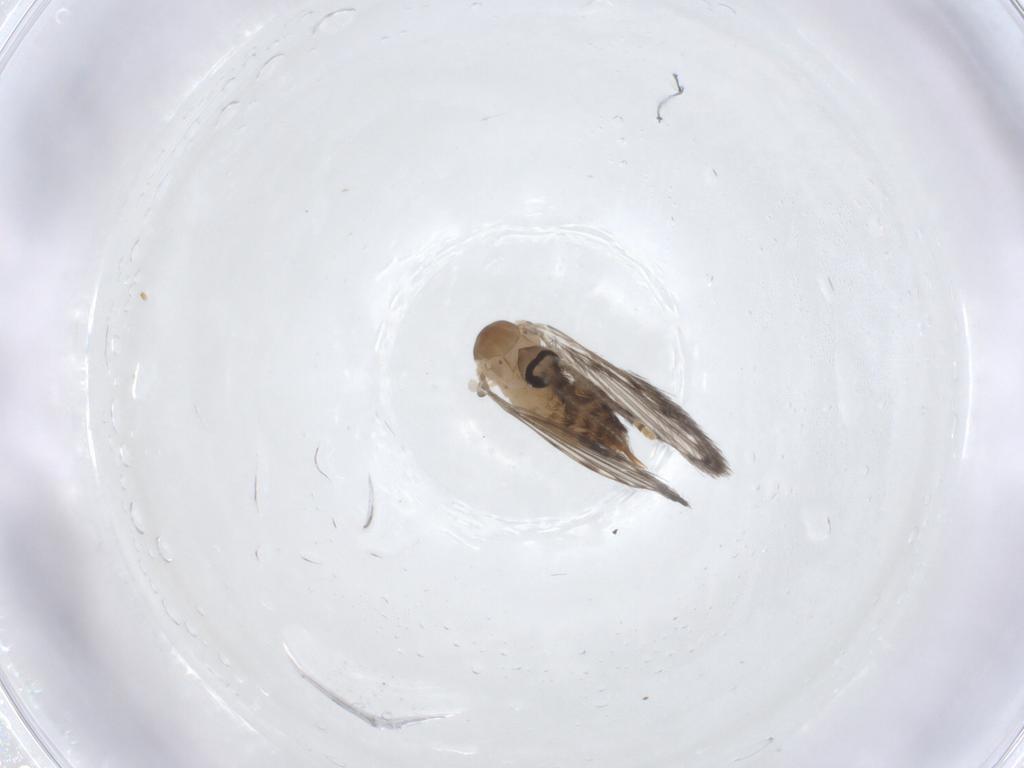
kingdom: Animalia
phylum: Arthropoda
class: Insecta
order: Diptera
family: Psychodidae
